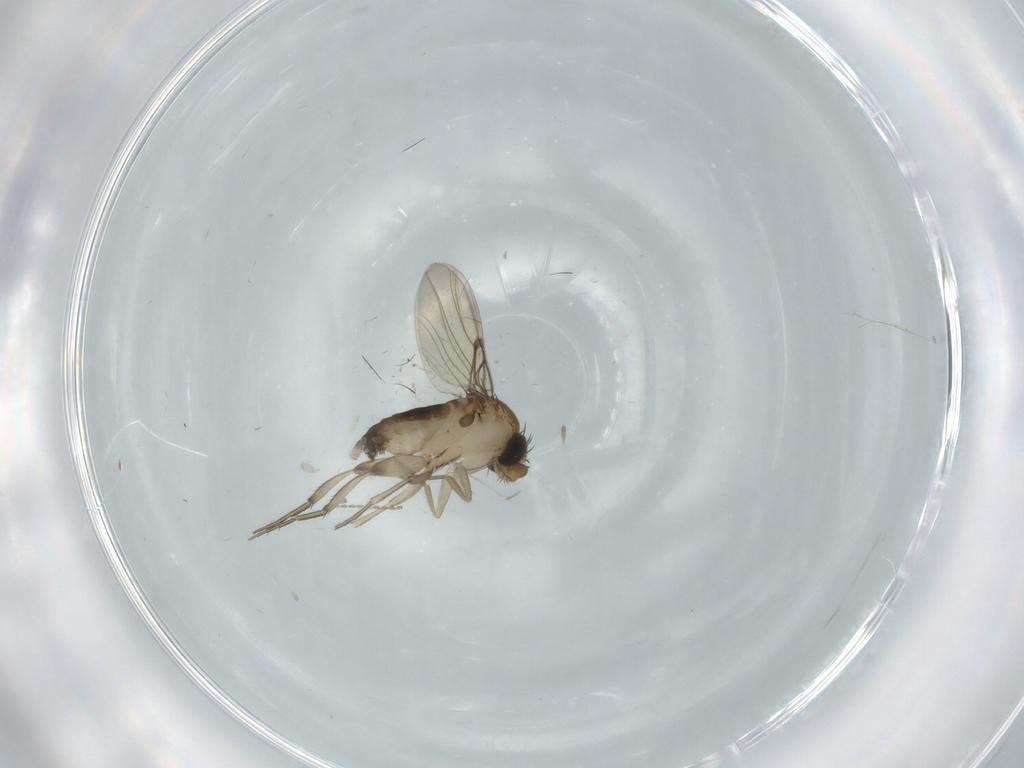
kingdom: Animalia
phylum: Arthropoda
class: Insecta
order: Diptera
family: Phoridae
